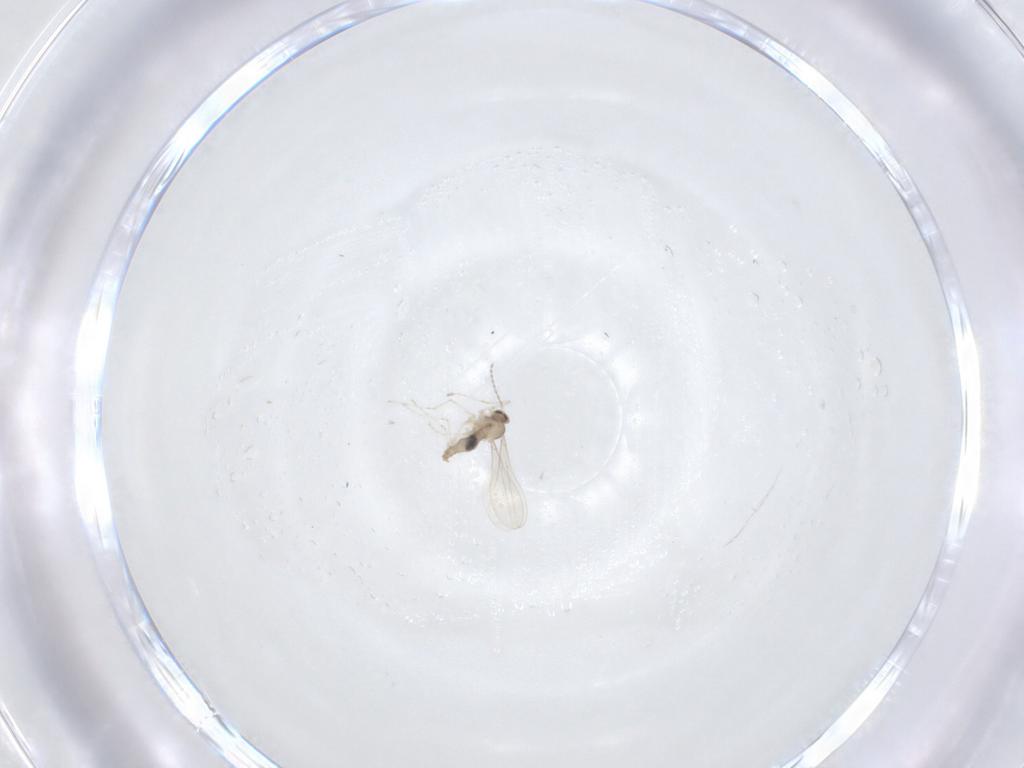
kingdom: Animalia
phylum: Arthropoda
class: Insecta
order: Diptera
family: Cecidomyiidae
